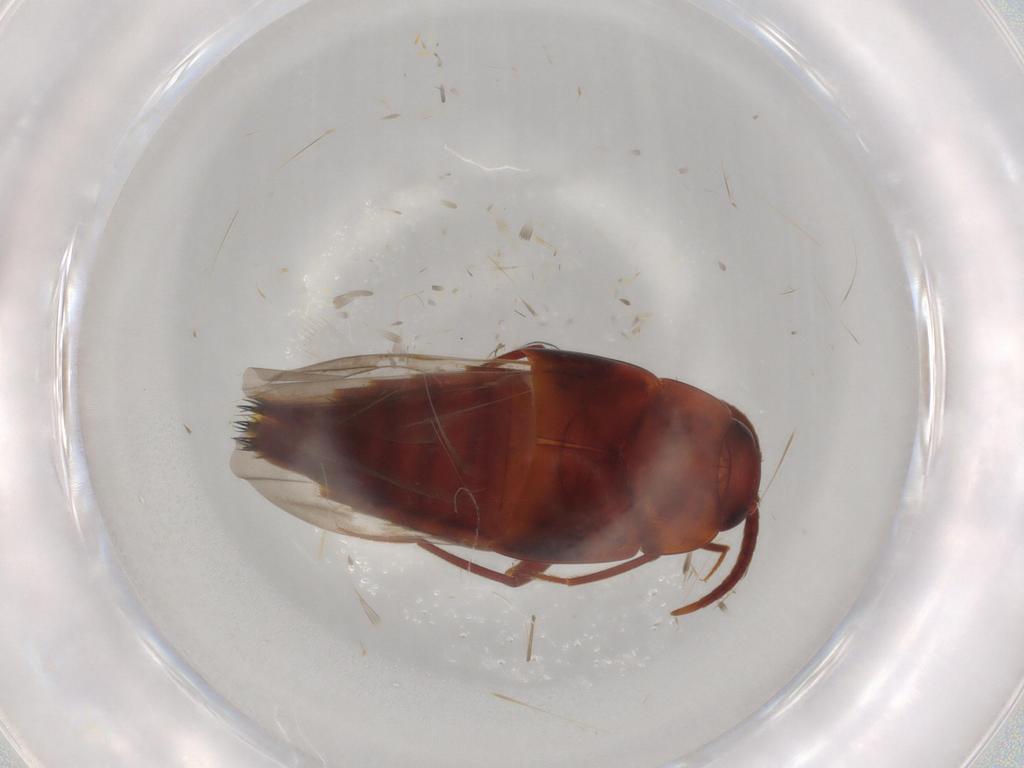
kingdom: Animalia
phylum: Arthropoda
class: Insecta
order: Coleoptera
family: Staphylinidae
